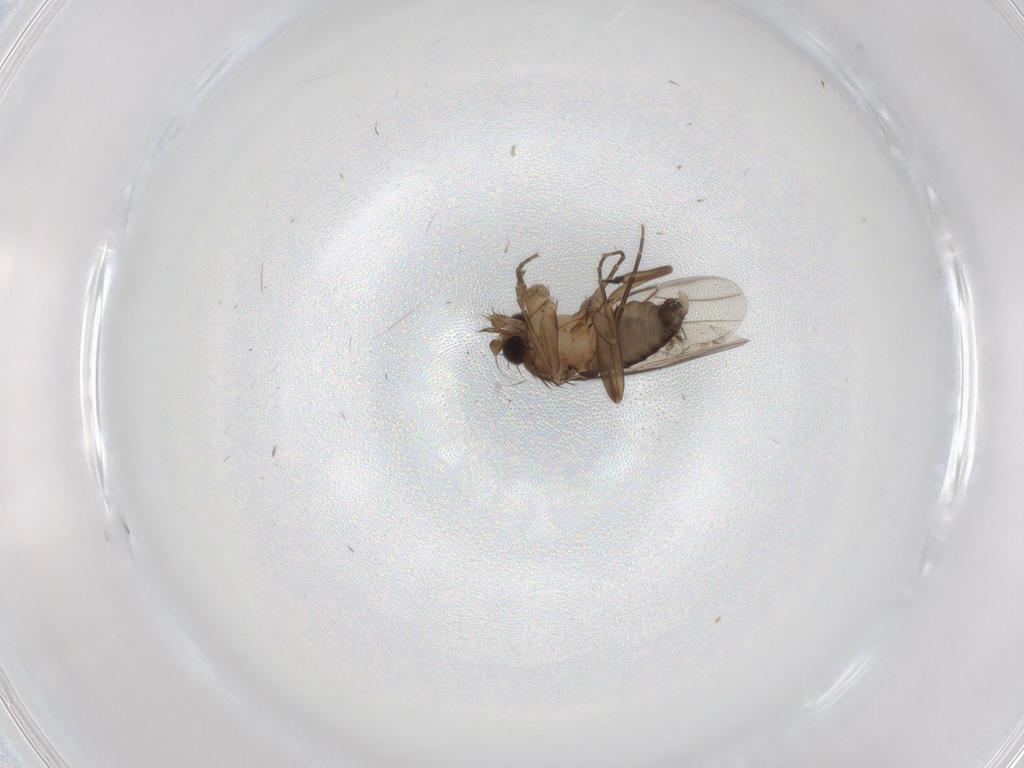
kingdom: Animalia
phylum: Arthropoda
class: Insecta
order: Diptera
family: Phoridae
